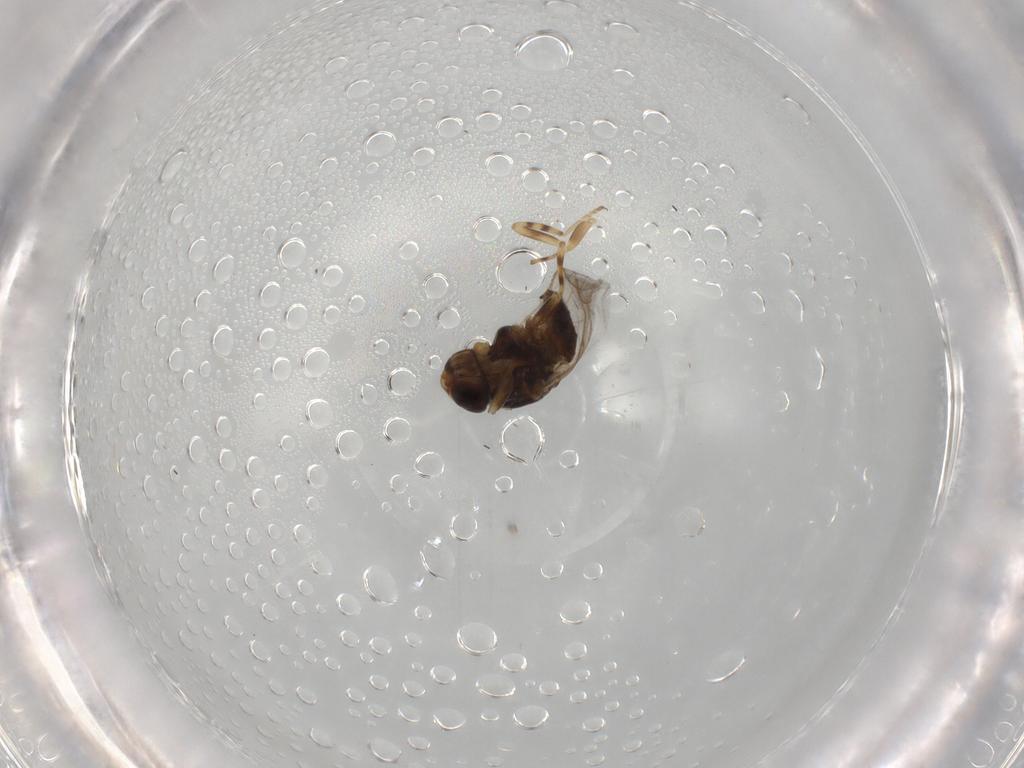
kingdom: Animalia
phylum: Arthropoda
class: Insecta
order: Diptera
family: Chloropidae
